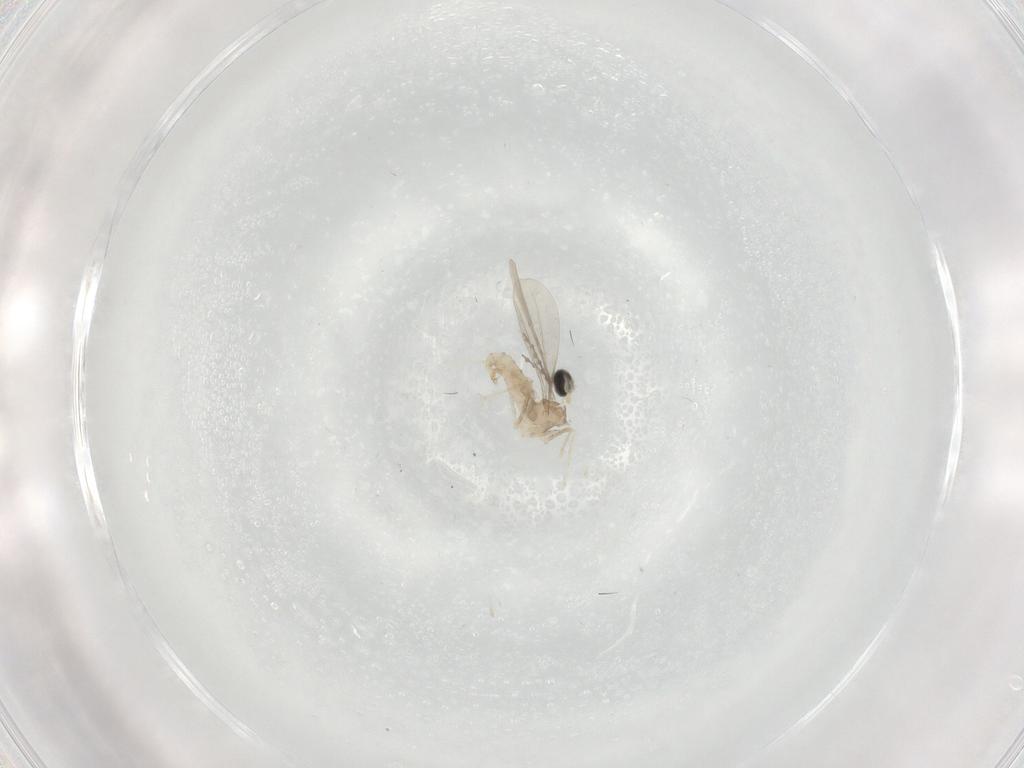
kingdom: Animalia
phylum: Arthropoda
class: Insecta
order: Diptera
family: Cecidomyiidae
